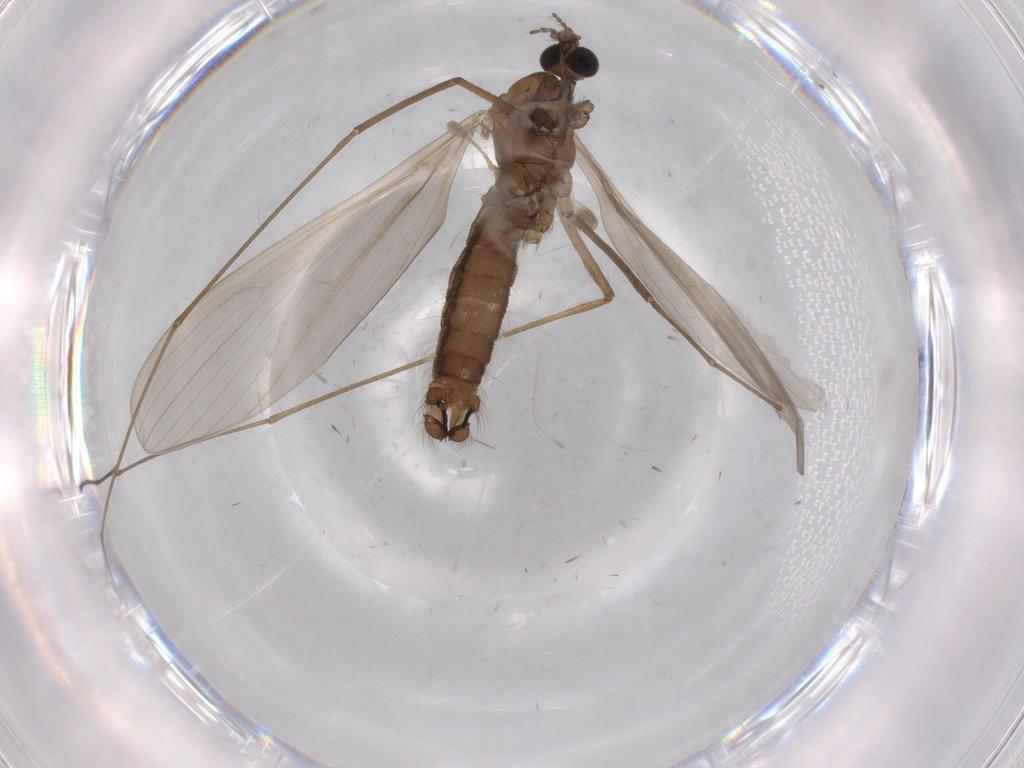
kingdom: Animalia
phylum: Arthropoda
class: Insecta
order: Diptera
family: Limoniidae
